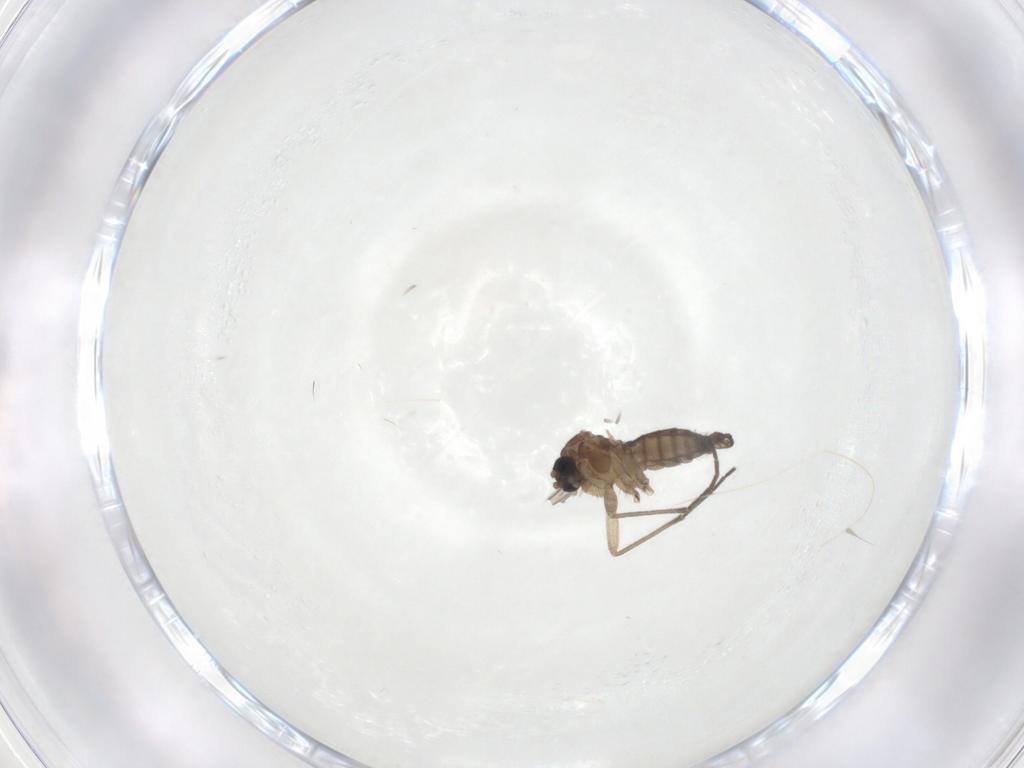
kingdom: Animalia
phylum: Arthropoda
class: Insecta
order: Diptera
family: Sciaridae
